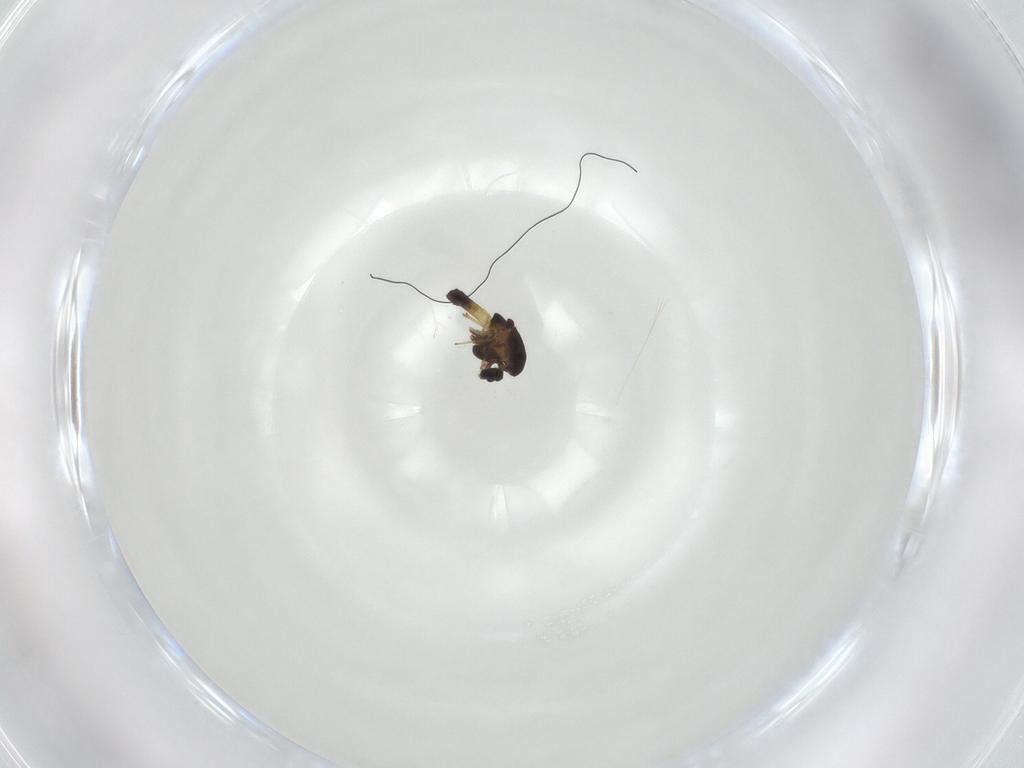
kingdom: Animalia
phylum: Arthropoda
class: Insecta
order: Diptera
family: Chironomidae
